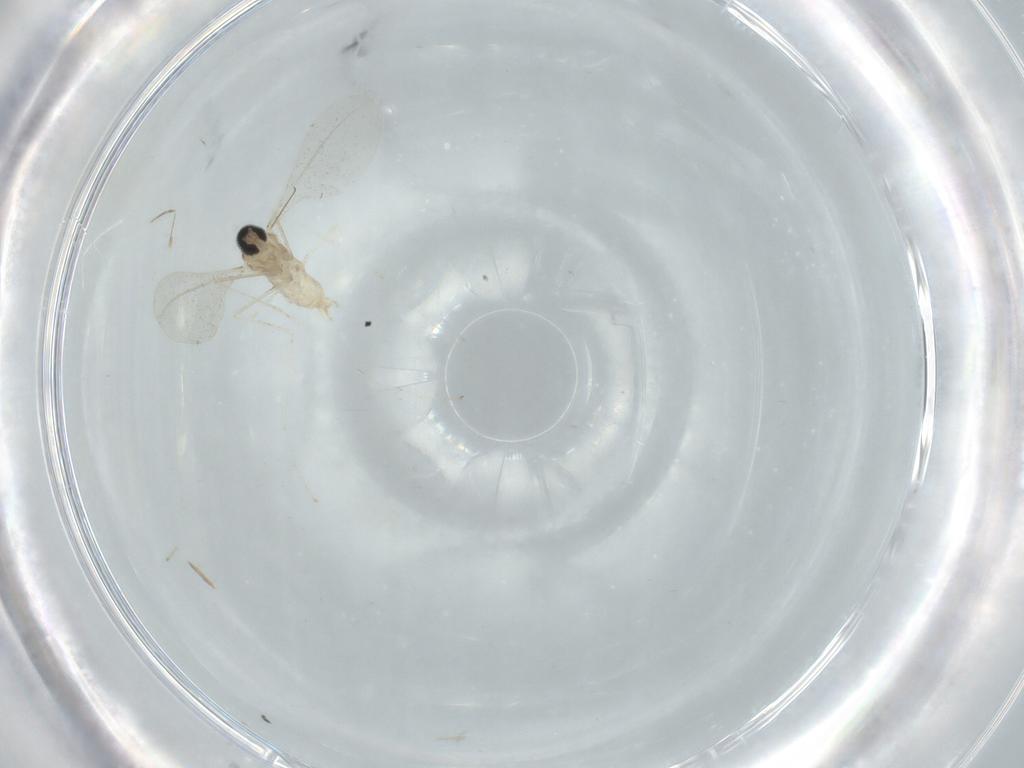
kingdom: Animalia
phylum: Arthropoda
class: Insecta
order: Diptera
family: Cecidomyiidae
